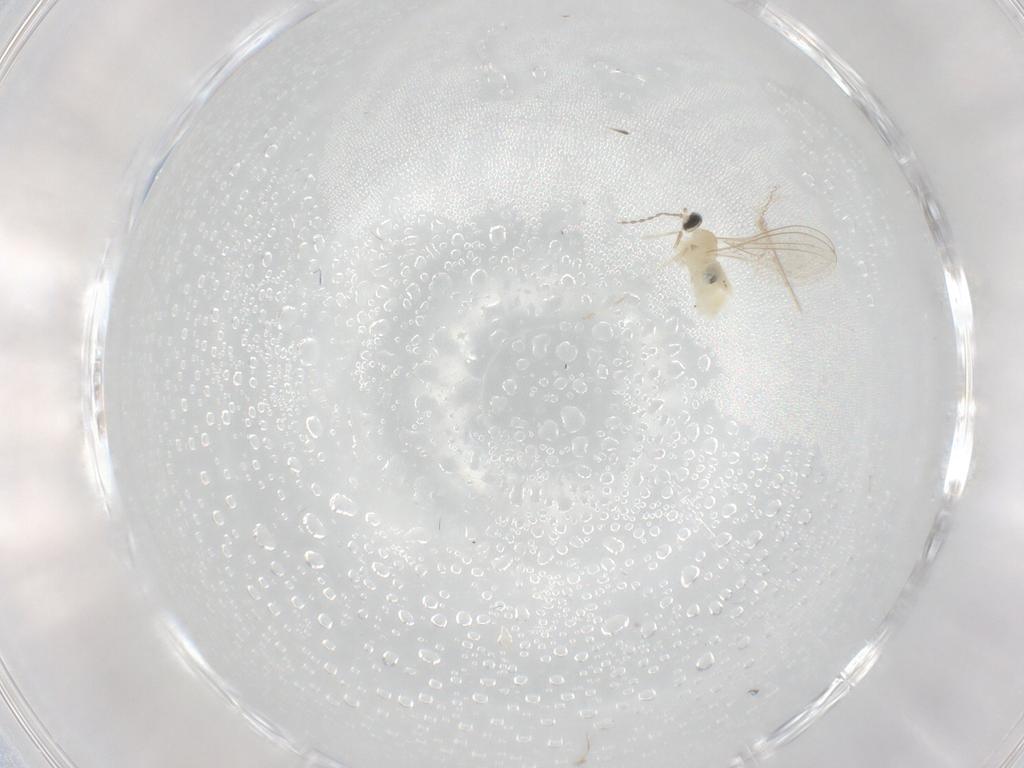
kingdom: Animalia
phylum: Arthropoda
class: Insecta
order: Diptera
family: Cecidomyiidae
